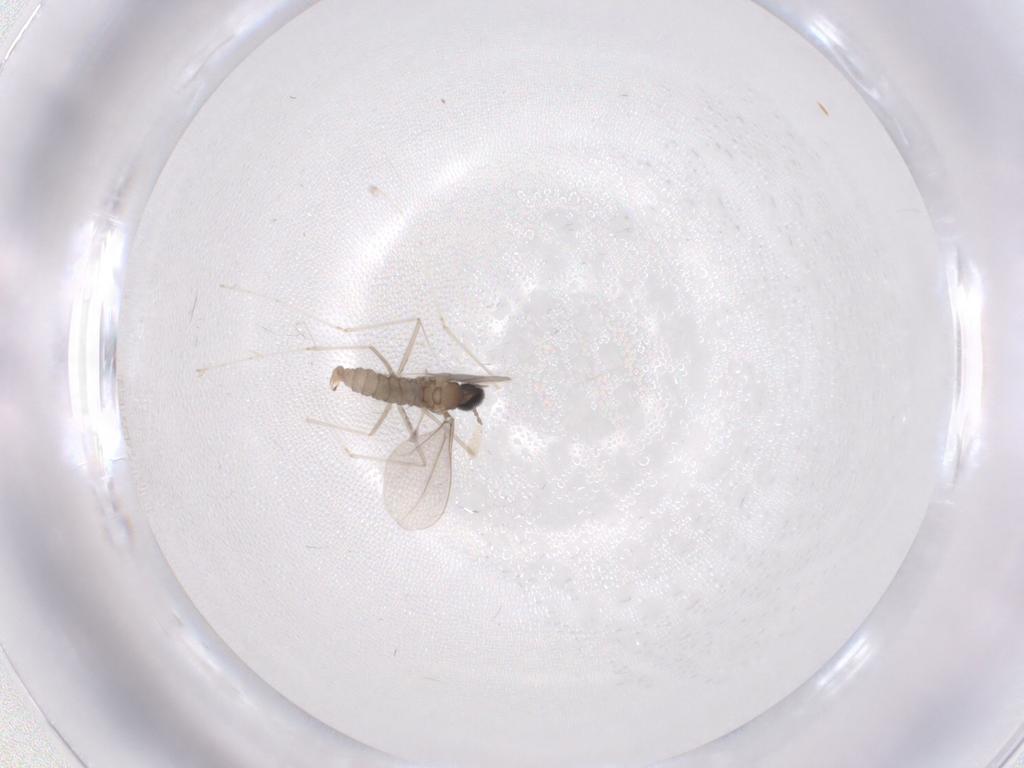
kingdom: Animalia
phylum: Arthropoda
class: Insecta
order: Diptera
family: Cecidomyiidae
